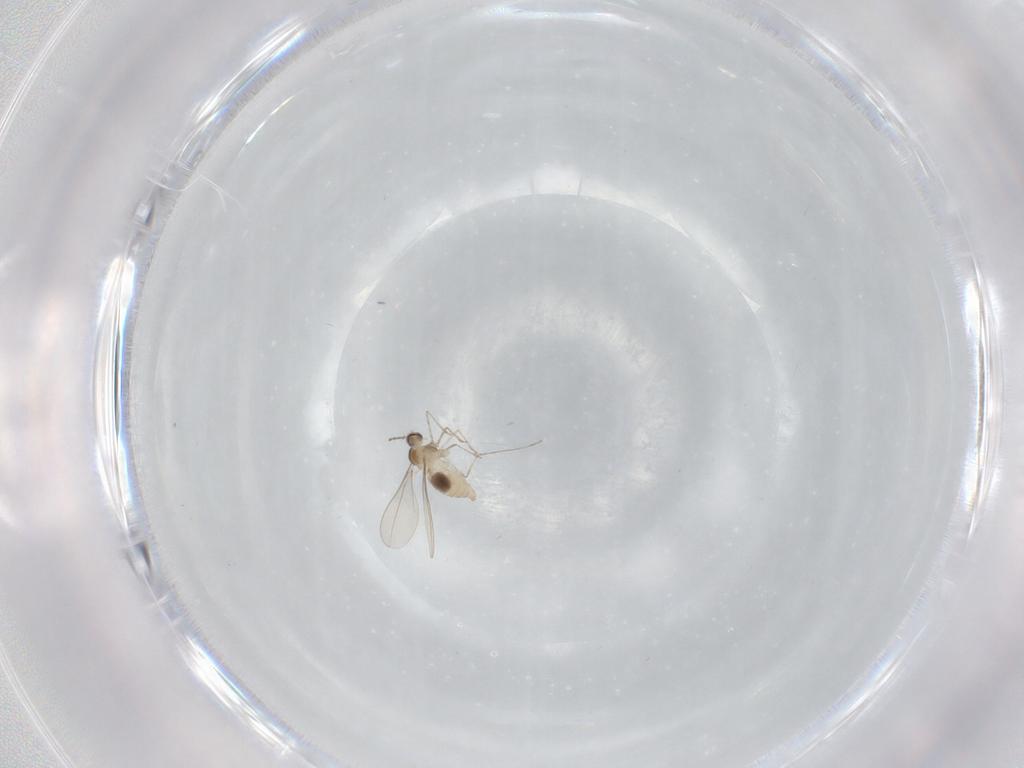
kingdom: Animalia
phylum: Arthropoda
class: Insecta
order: Diptera
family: Cecidomyiidae
